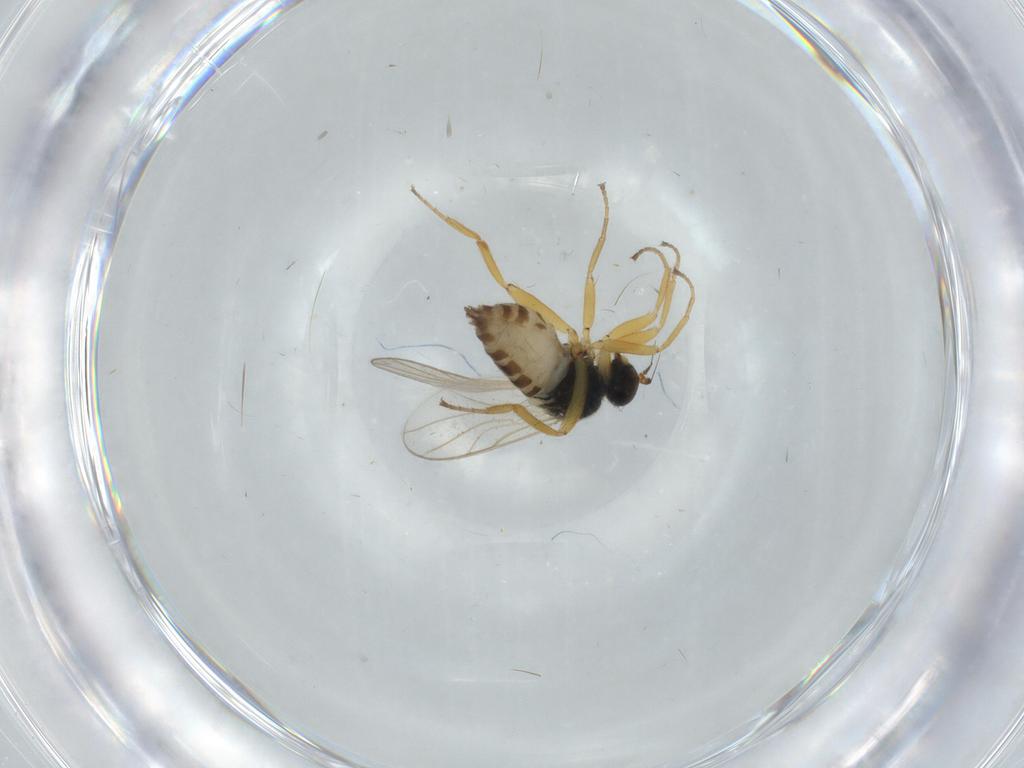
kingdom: Animalia
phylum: Arthropoda
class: Insecta
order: Diptera
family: Hybotidae
